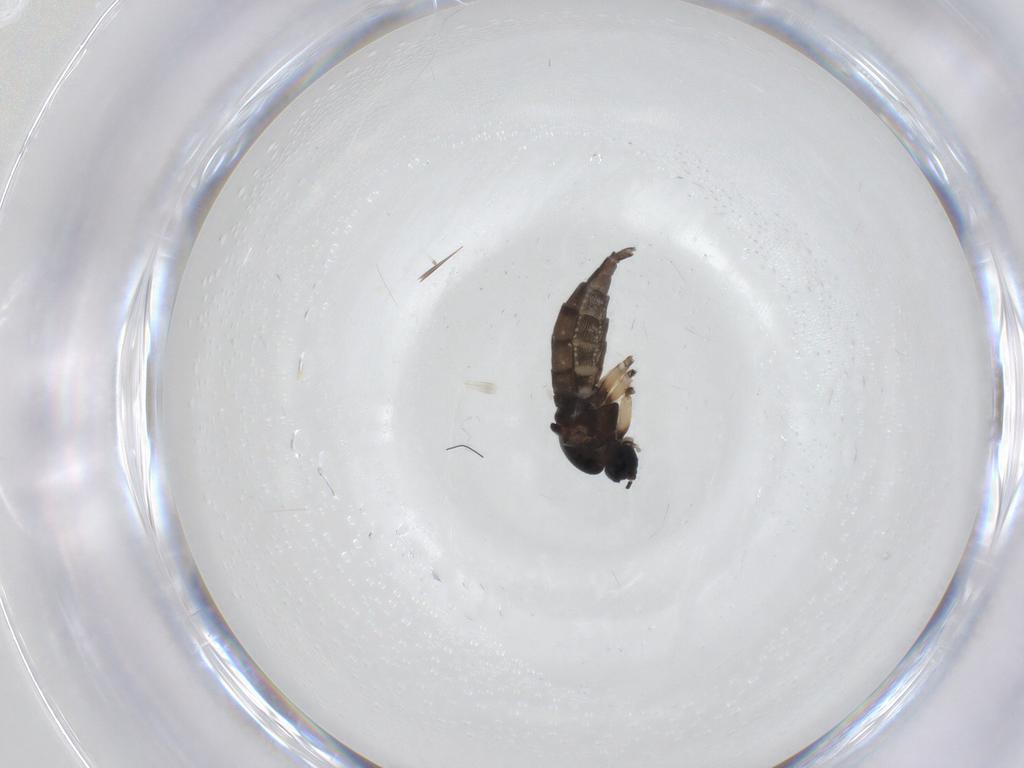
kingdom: Animalia
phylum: Arthropoda
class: Insecta
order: Diptera
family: Sciaridae
